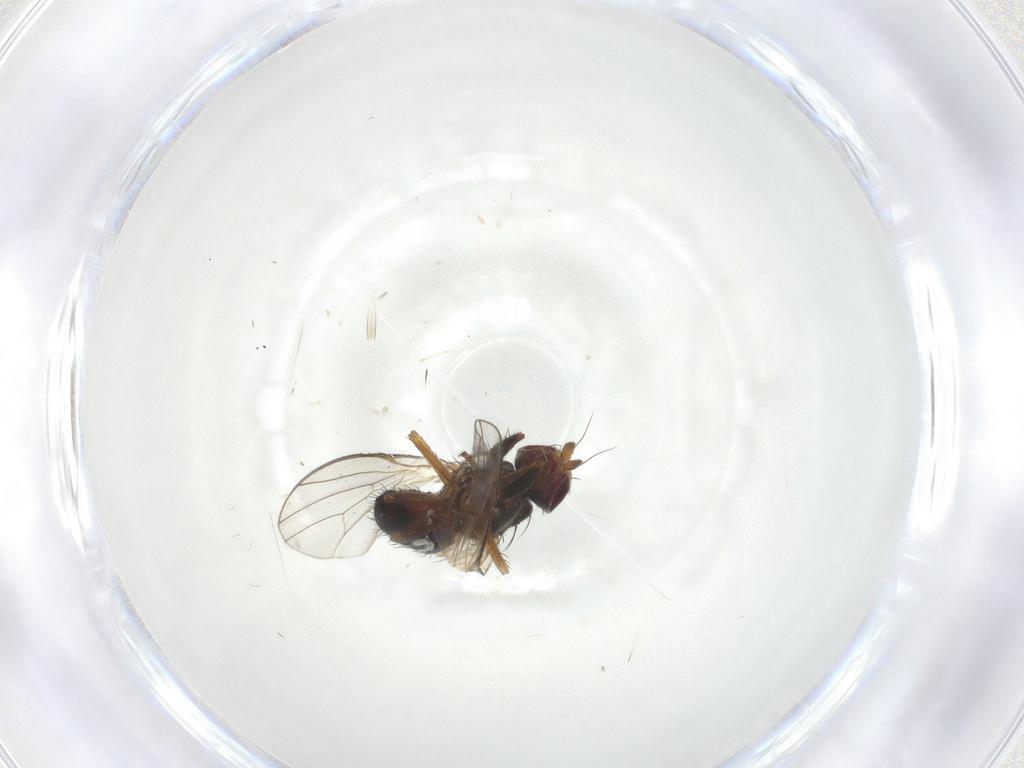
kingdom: Animalia
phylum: Arthropoda
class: Insecta
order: Diptera
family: Heleomyzidae
